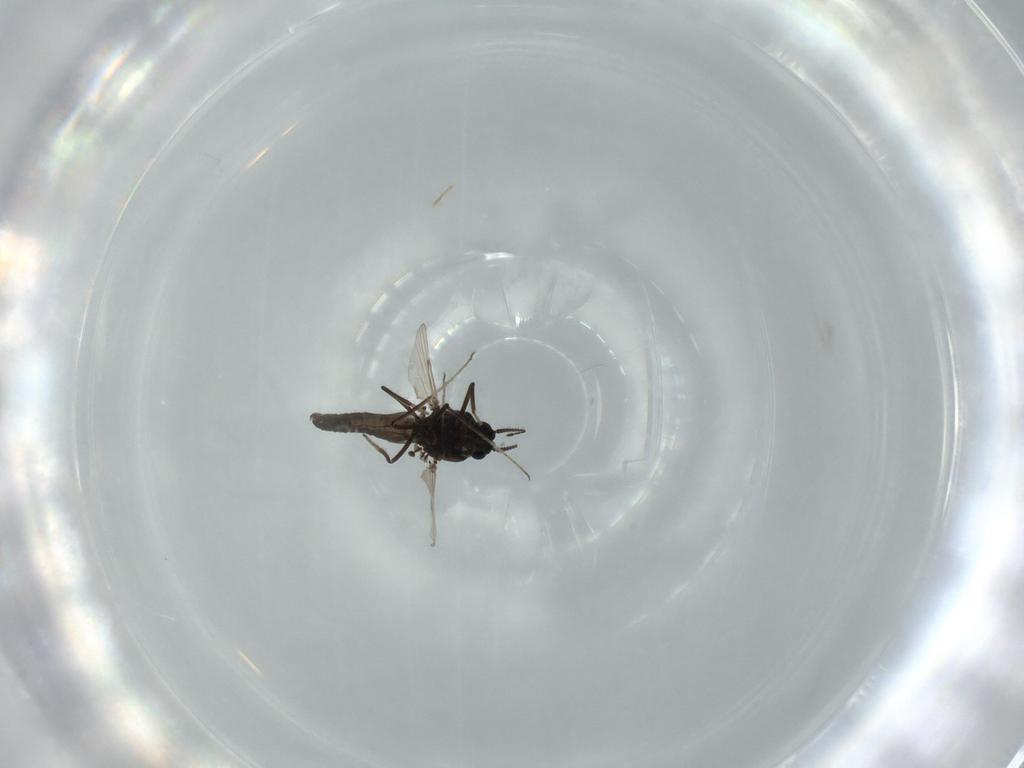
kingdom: Animalia
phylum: Arthropoda
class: Insecta
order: Diptera
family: Chironomidae
